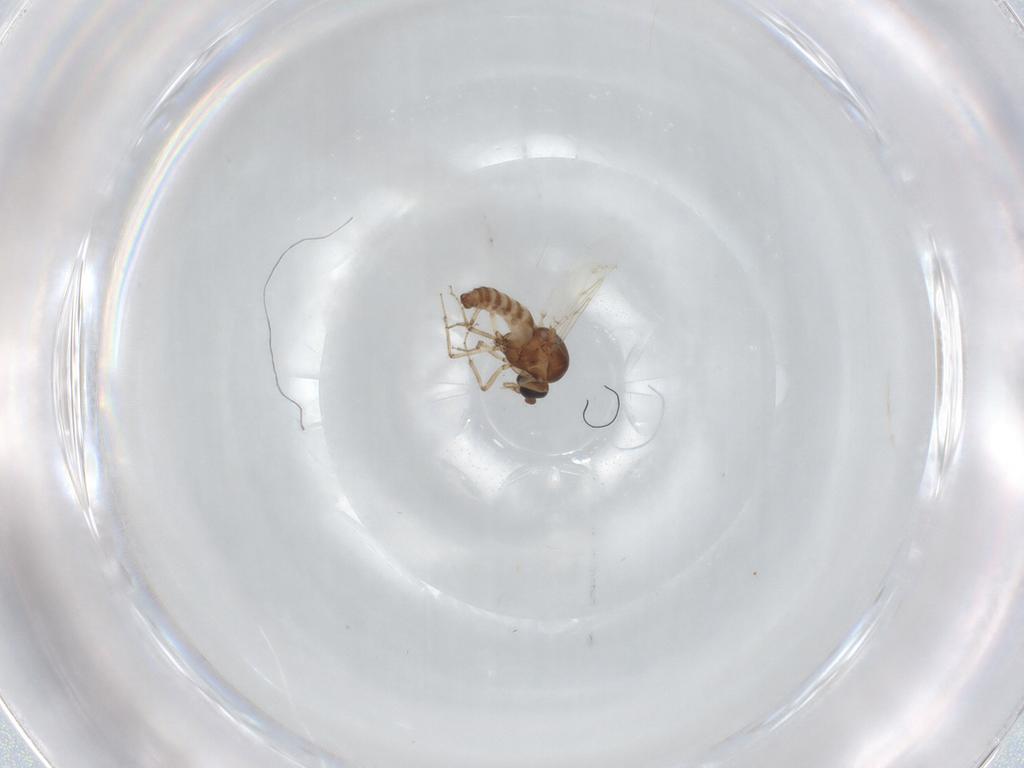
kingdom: Animalia
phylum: Arthropoda
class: Insecta
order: Diptera
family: Ceratopogonidae
